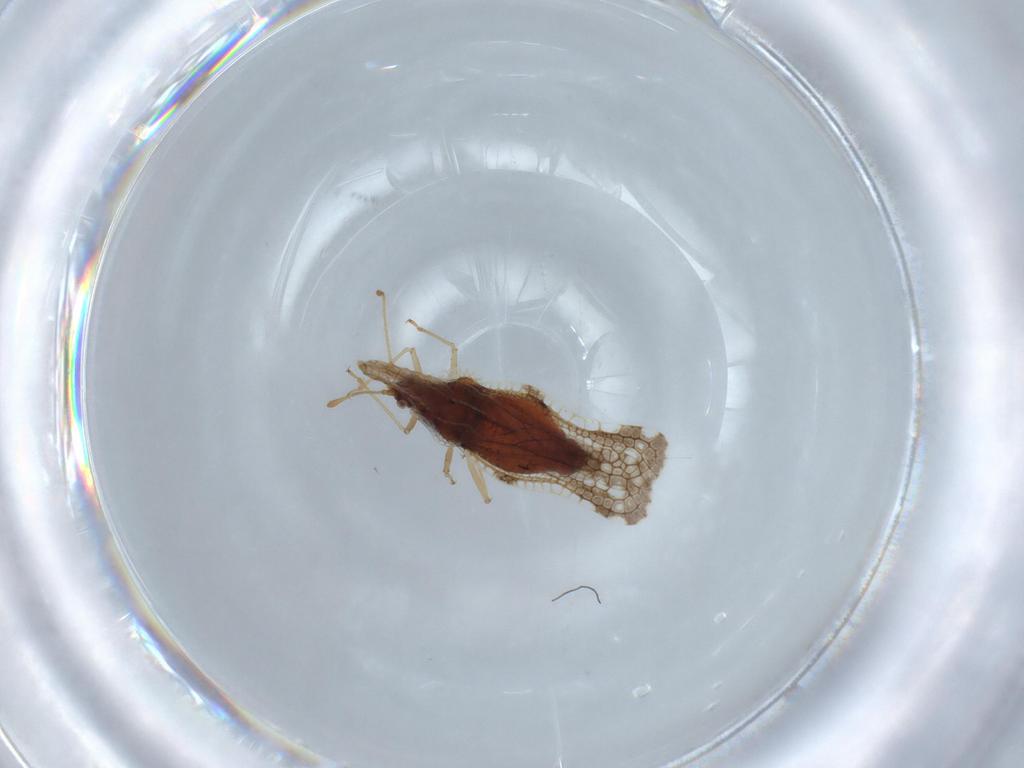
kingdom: Animalia
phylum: Arthropoda
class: Insecta
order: Hemiptera
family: Tingidae
